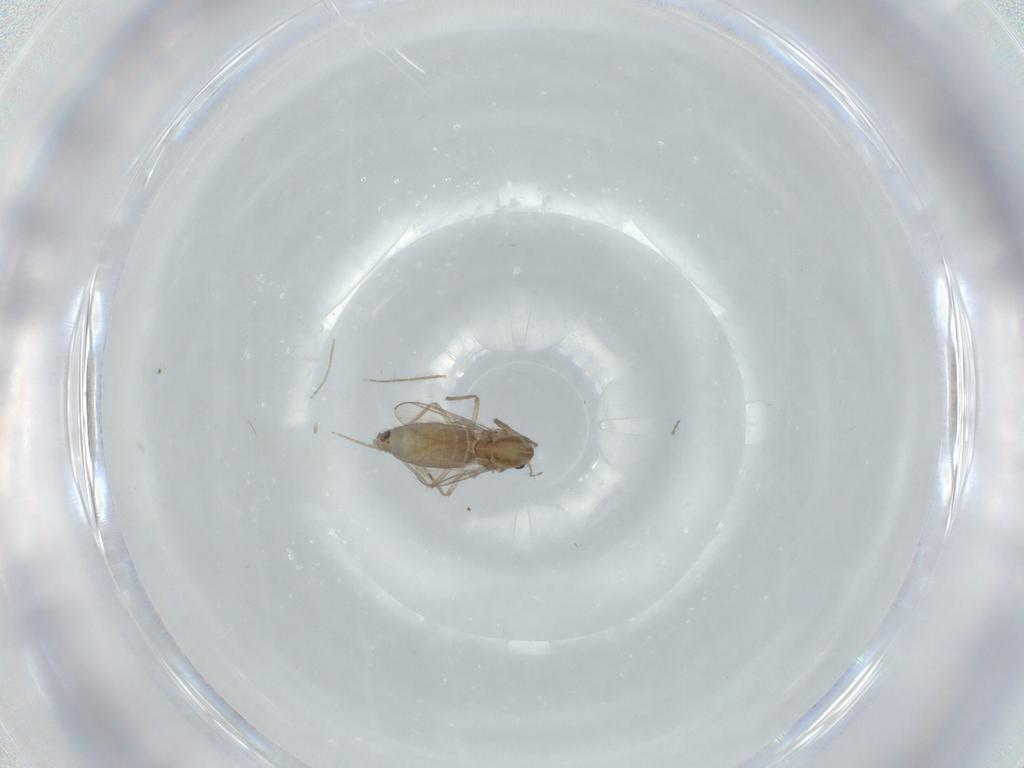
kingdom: Animalia
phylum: Arthropoda
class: Insecta
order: Diptera
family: Chironomidae
